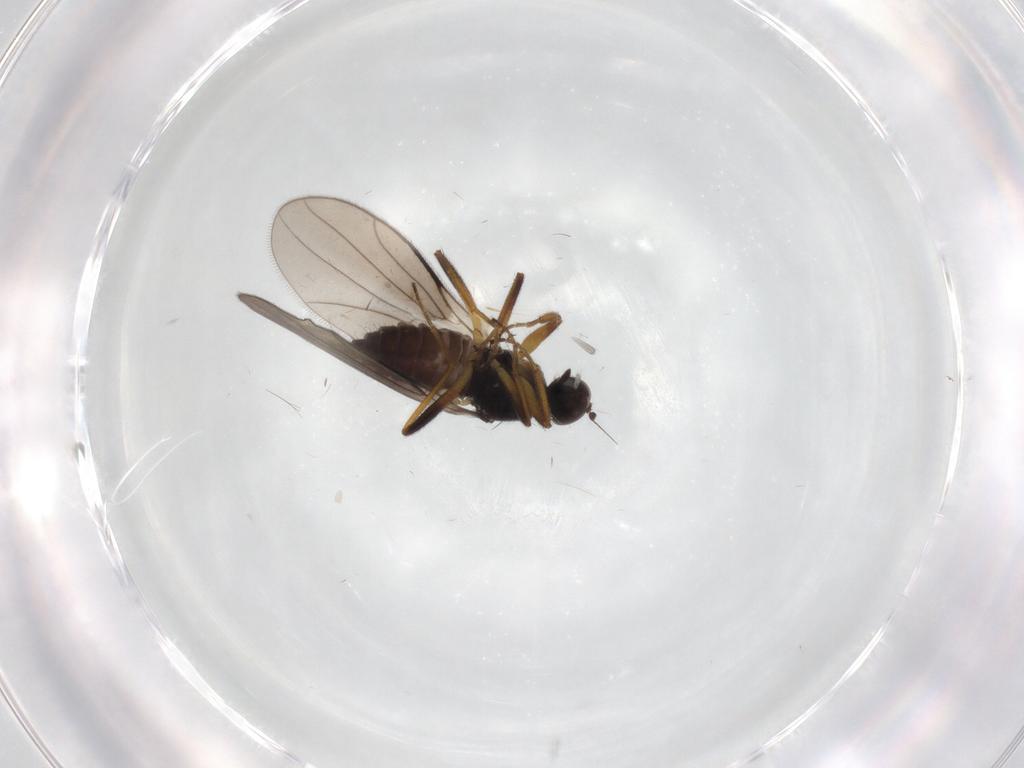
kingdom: Animalia
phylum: Arthropoda
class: Insecta
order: Diptera
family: Hybotidae
